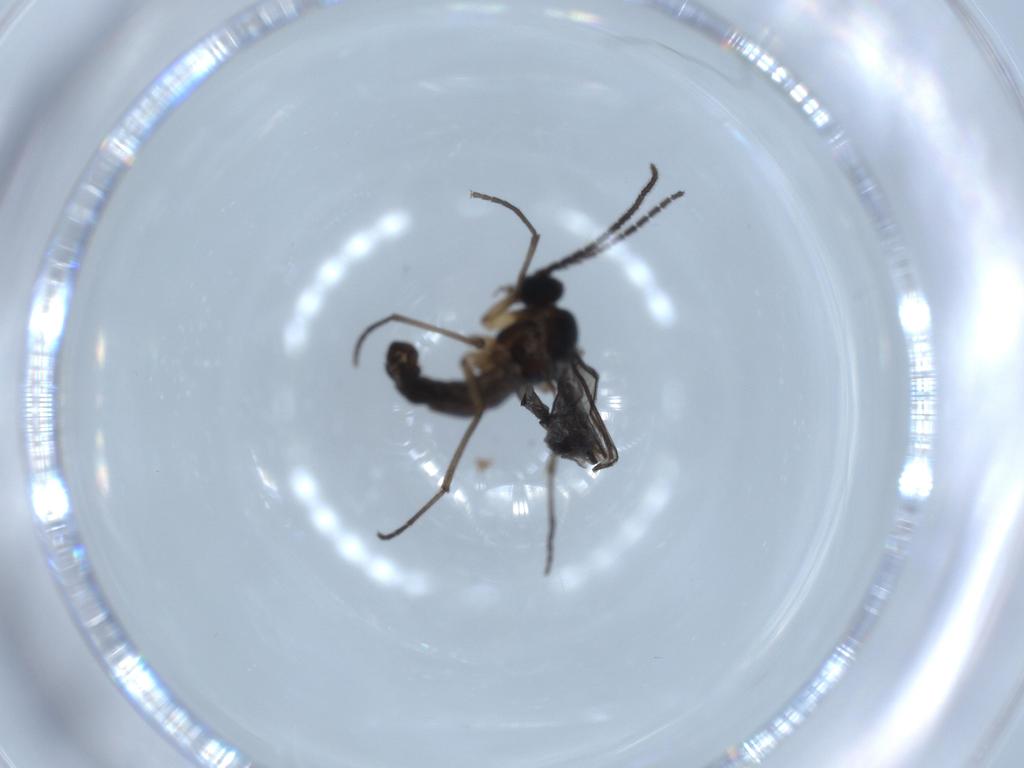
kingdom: Animalia
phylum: Arthropoda
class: Insecta
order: Diptera
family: Sciaridae
